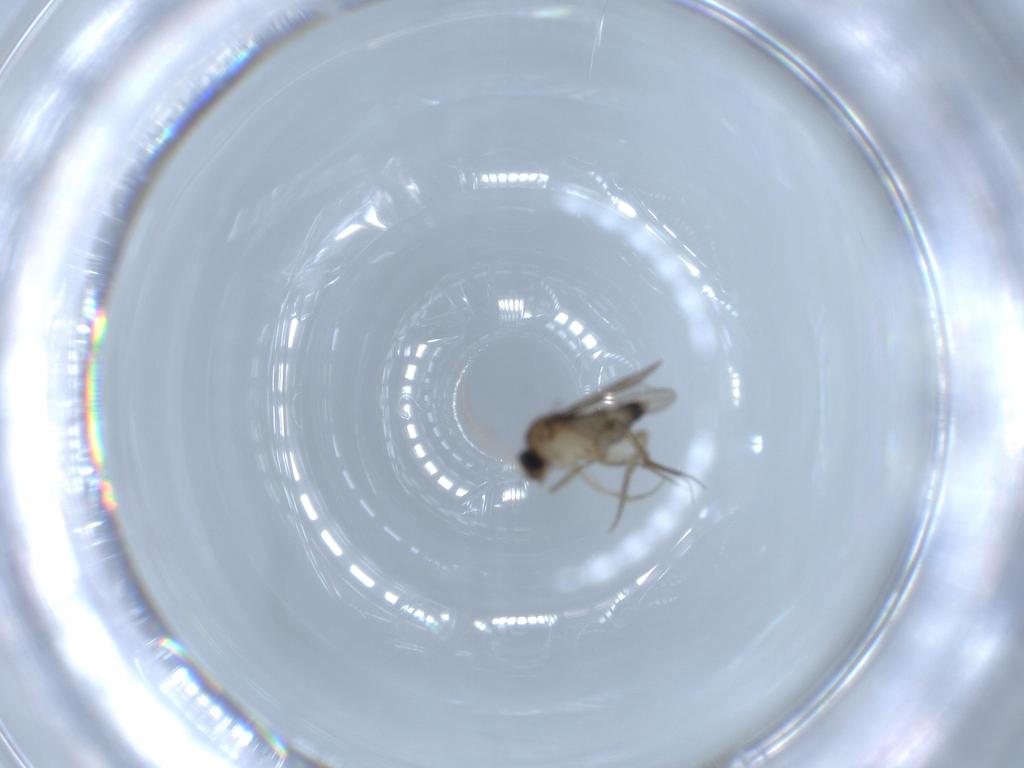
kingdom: Animalia
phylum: Arthropoda
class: Insecta
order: Diptera
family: Phoridae
